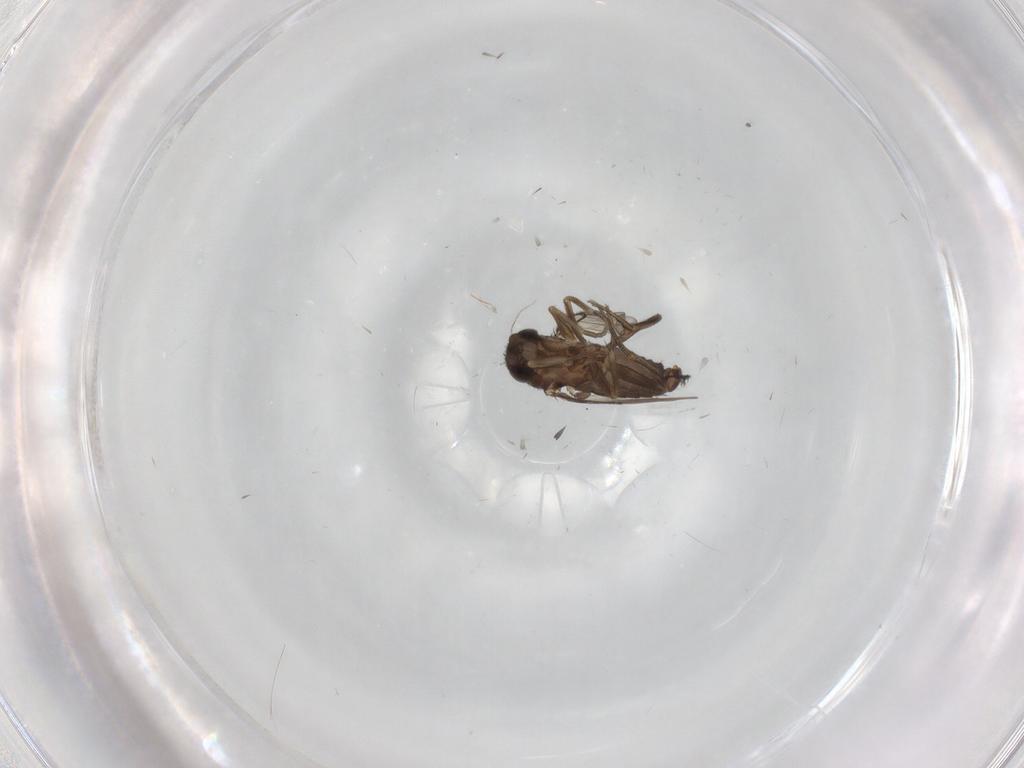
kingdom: Animalia
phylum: Arthropoda
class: Insecta
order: Diptera
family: Phoridae
